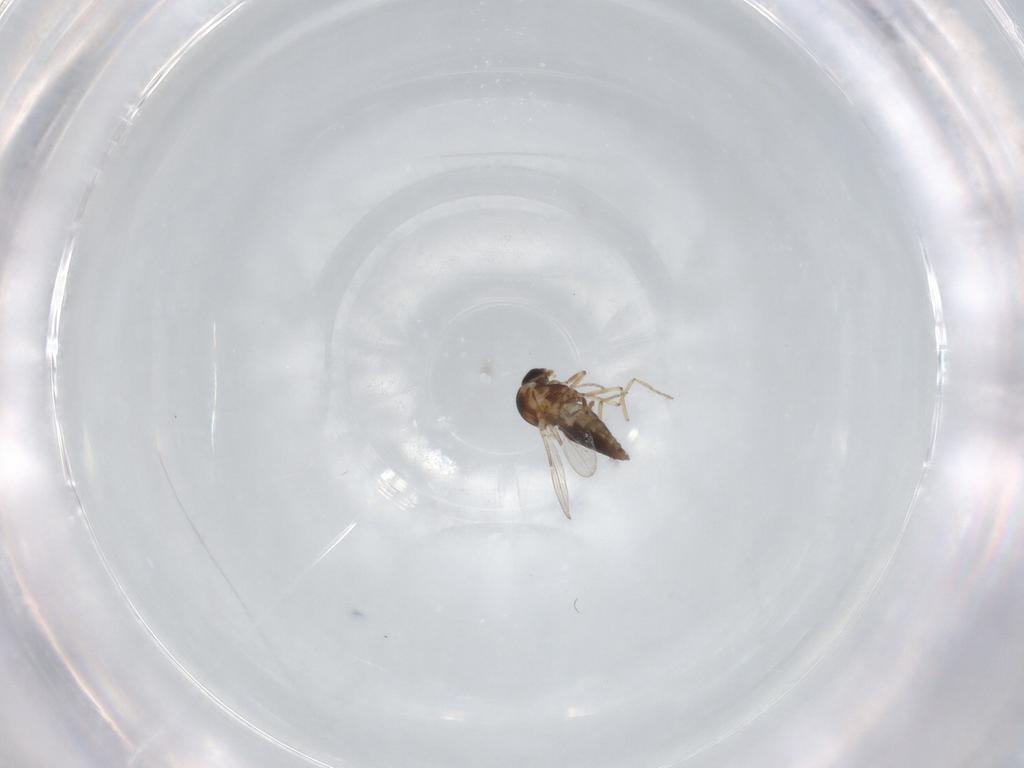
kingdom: Animalia
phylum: Arthropoda
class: Insecta
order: Diptera
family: Ceratopogonidae
